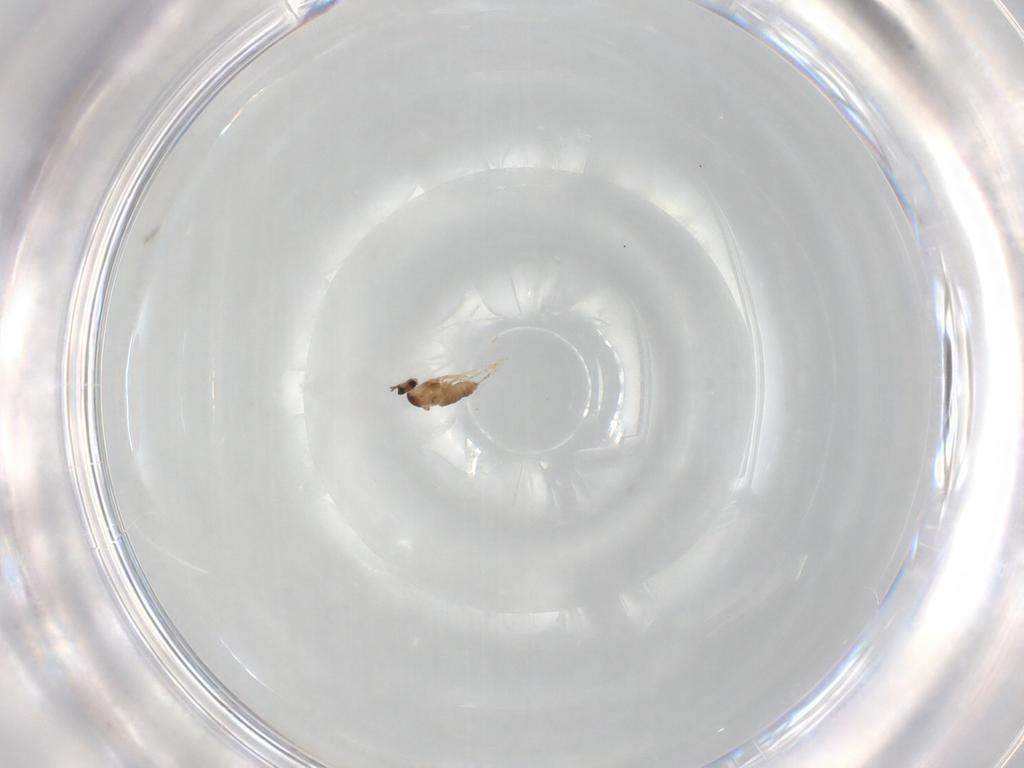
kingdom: Animalia
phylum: Arthropoda
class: Insecta
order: Diptera
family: Cecidomyiidae
